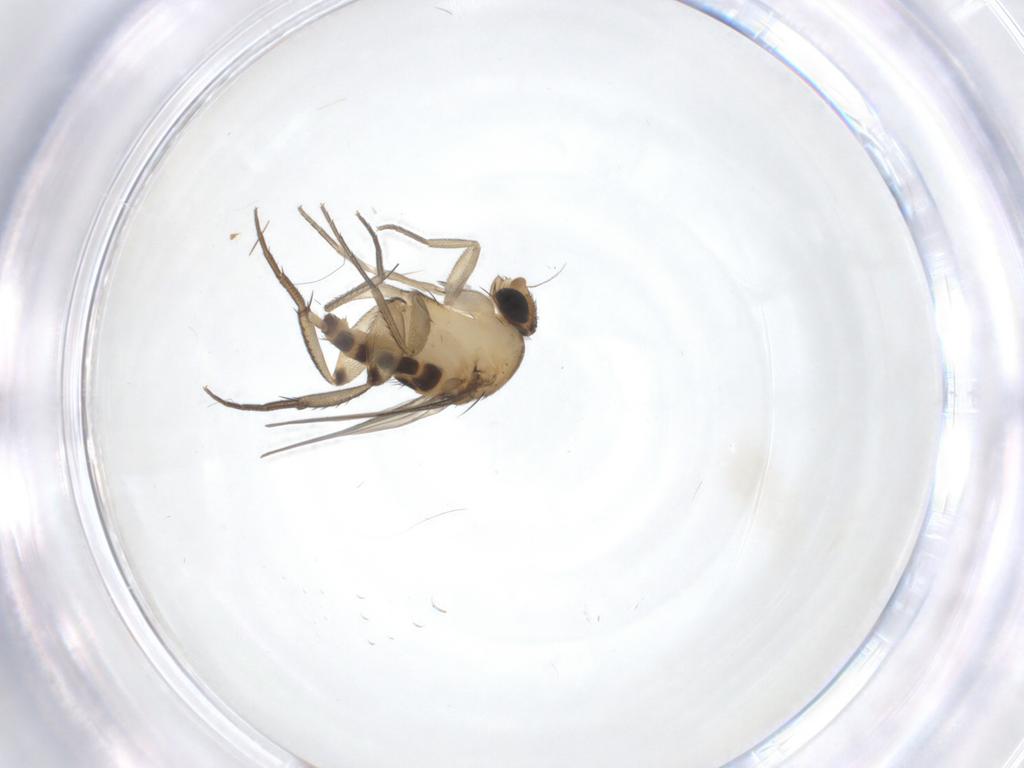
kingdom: Animalia
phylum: Arthropoda
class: Insecta
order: Diptera
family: Phoridae
